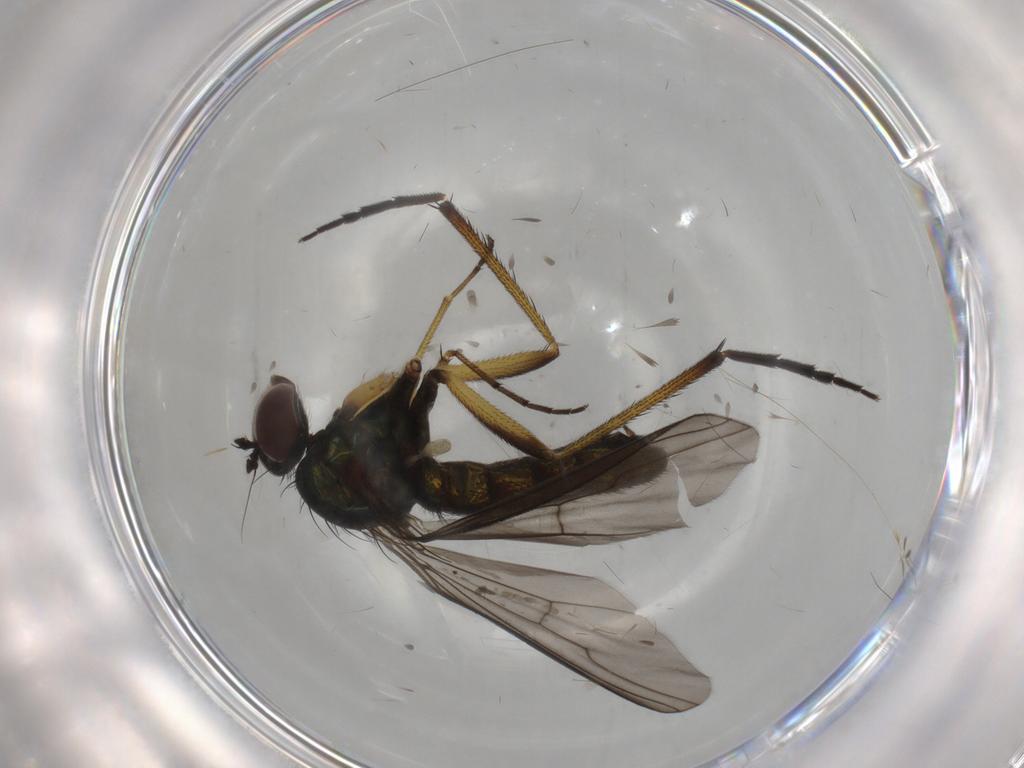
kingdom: Animalia
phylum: Arthropoda
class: Insecta
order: Diptera
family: Dolichopodidae
